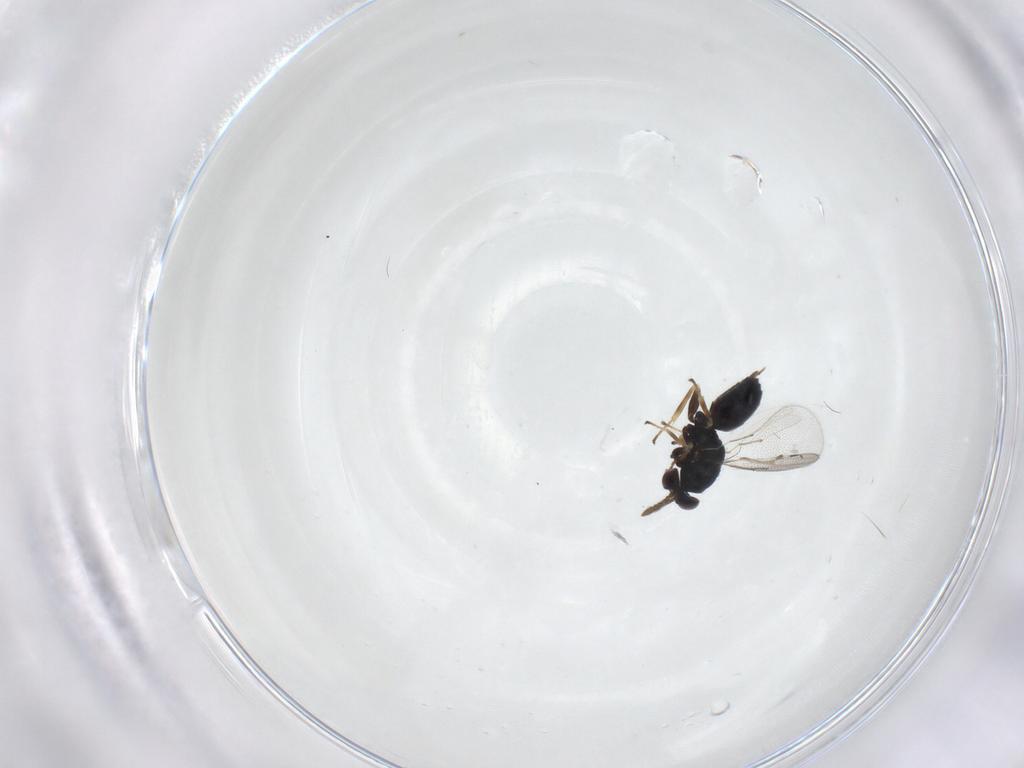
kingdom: Animalia
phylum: Arthropoda
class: Insecta
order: Hymenoptera
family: Eulophidae
